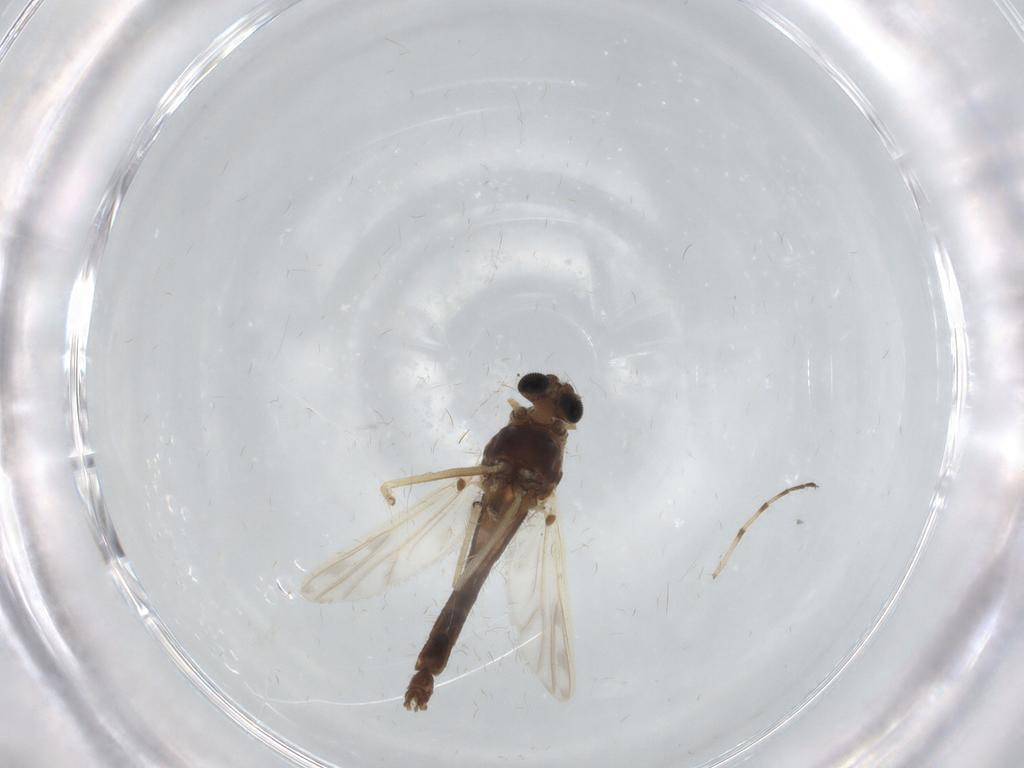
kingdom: Animalia
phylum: Arthropoda
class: Insecta
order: Diptera
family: Chironomidae
